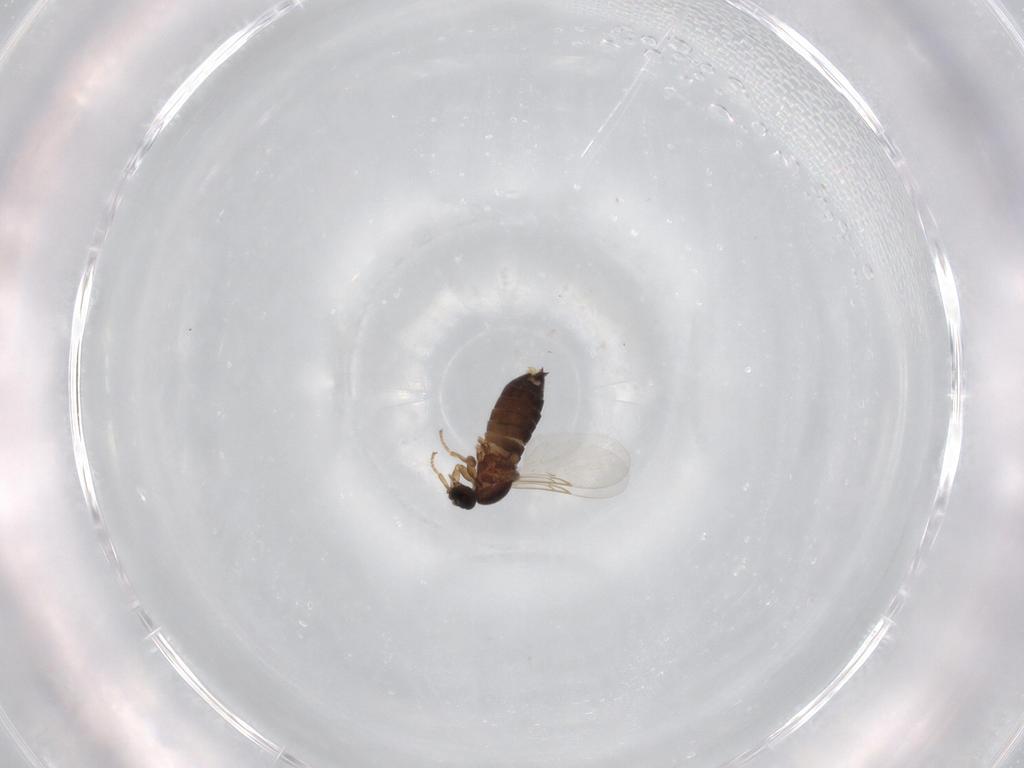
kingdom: Animalia
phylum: Arthropoda
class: Insecta
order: Diptera
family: Scatopsidae
